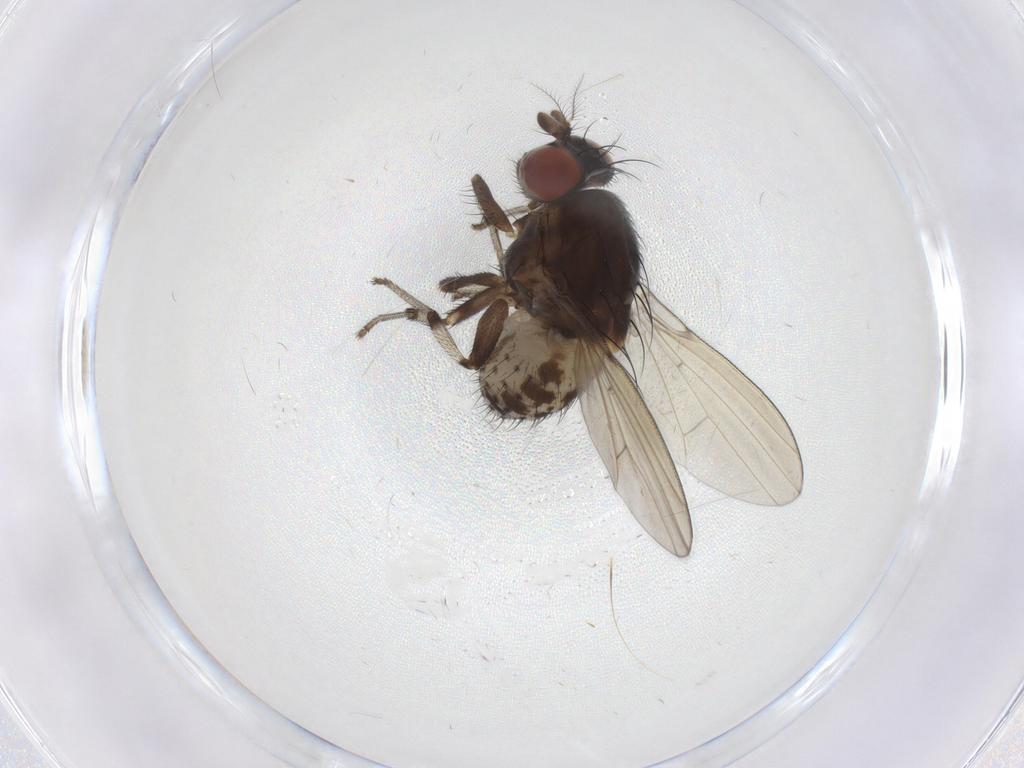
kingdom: Animalia
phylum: Arthropoda
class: Insecta
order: Diptera
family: Lauxaniidae
